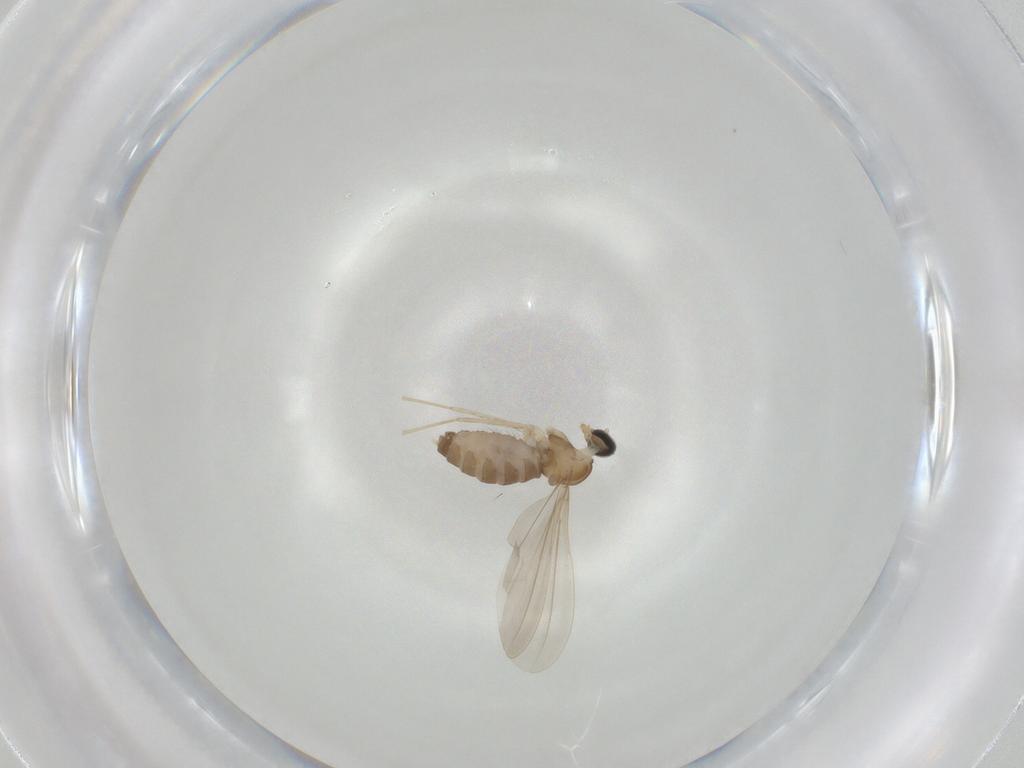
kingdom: Animalia
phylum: Arthropoda
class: Insecta
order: Diptera
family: Cecidomyiidae
